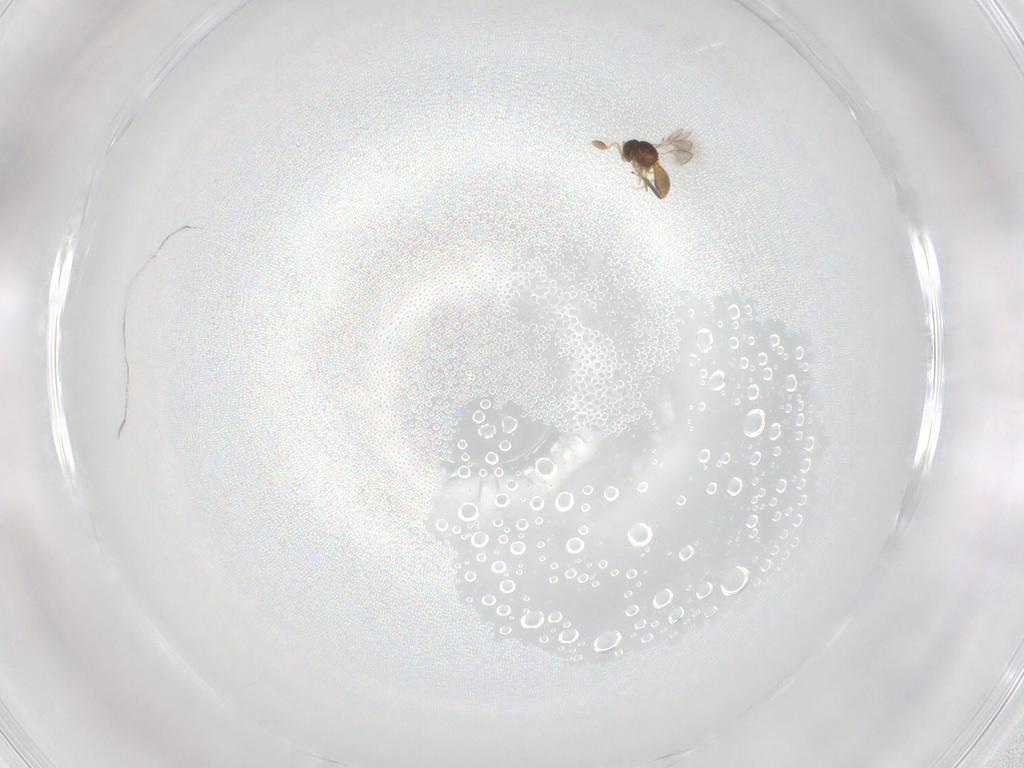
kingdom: Animalia
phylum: Arthropoda
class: Insecta
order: Hymenoptera
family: Scelionidae
